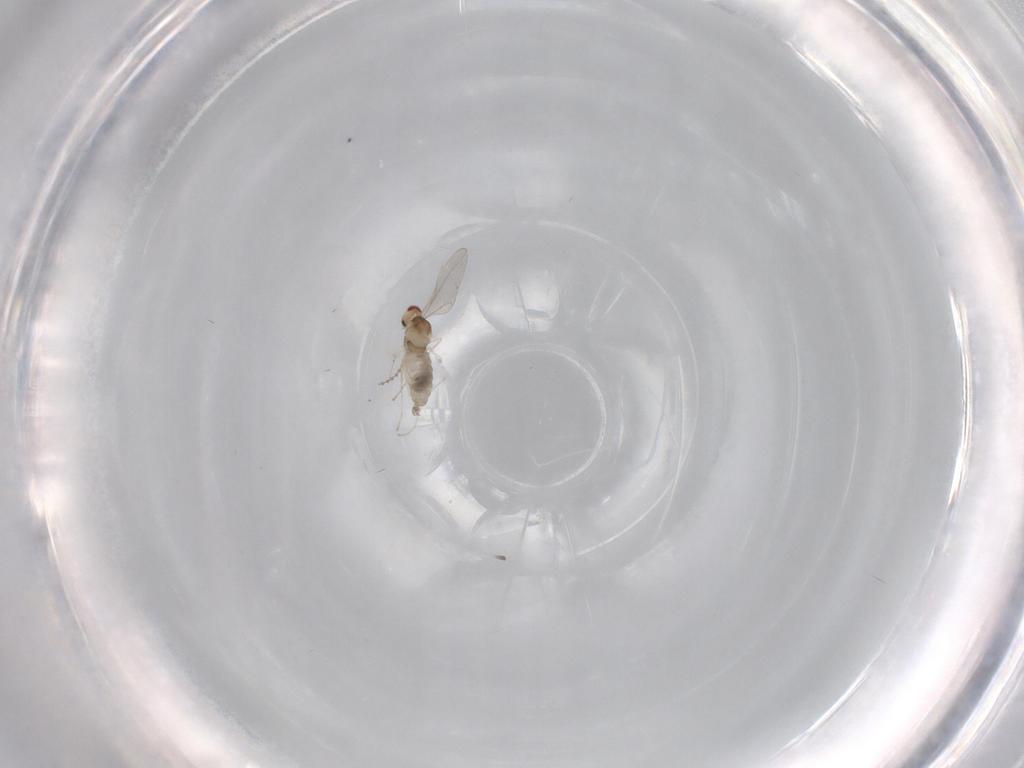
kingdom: Animalia
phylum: Arthropoda
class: Insecta
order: Diptera
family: Cecidomyiidae
